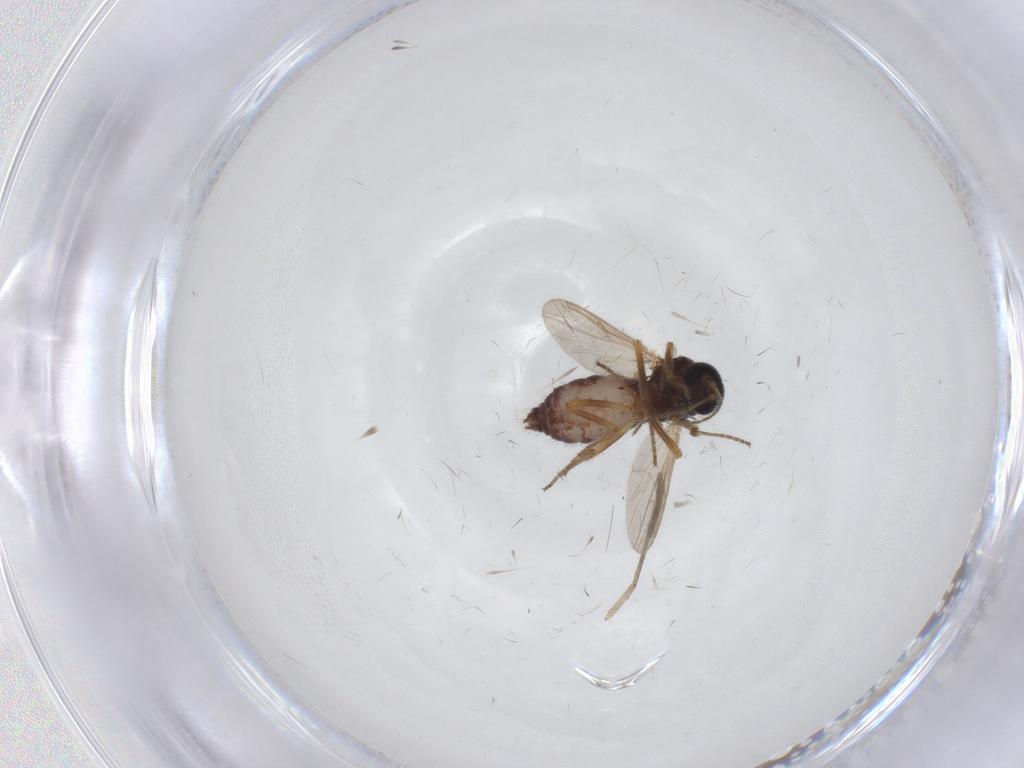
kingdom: Animalia
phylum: Arthropoda
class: Insecta
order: Diptera
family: Ceratopogonidae
